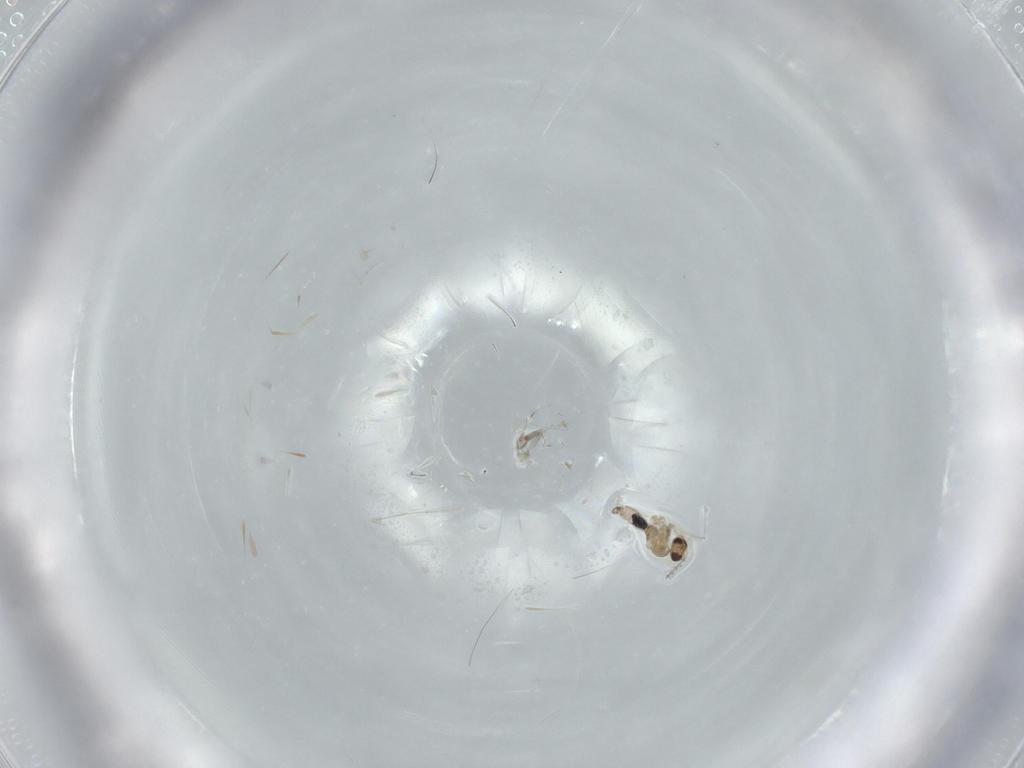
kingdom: Animalia
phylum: Arthropoda
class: Insecta
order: Diptera
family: Cecidomyiidae
